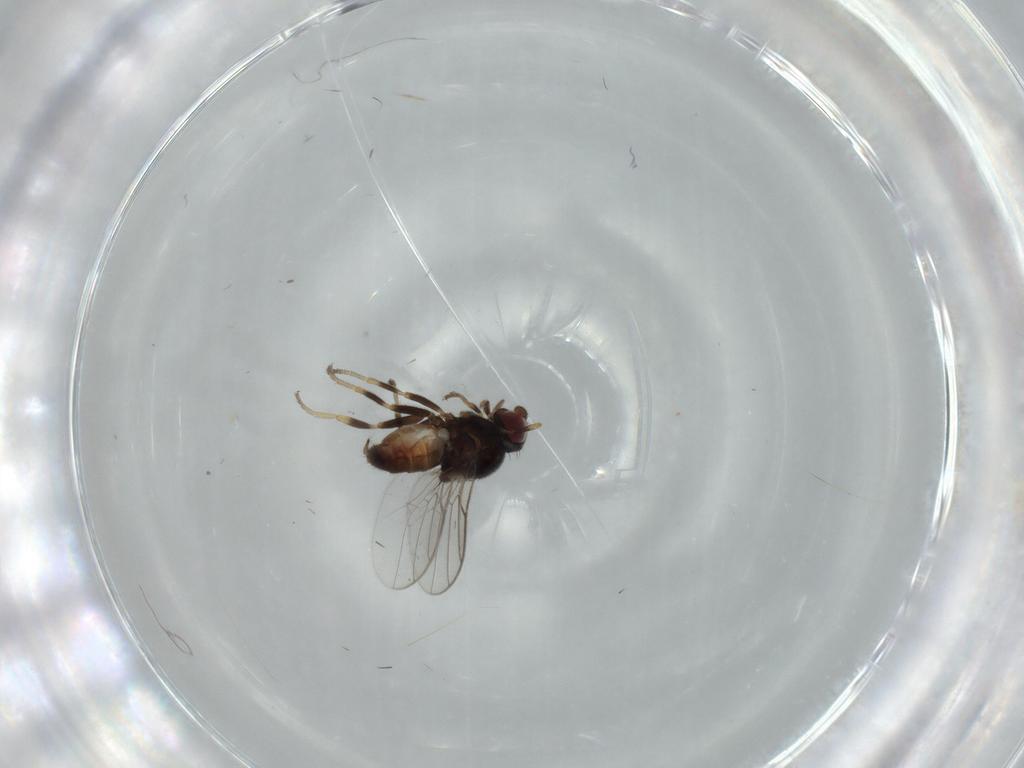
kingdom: Animalia
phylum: Arthropoda
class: Insecta
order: Diptera
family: Chloropidae
